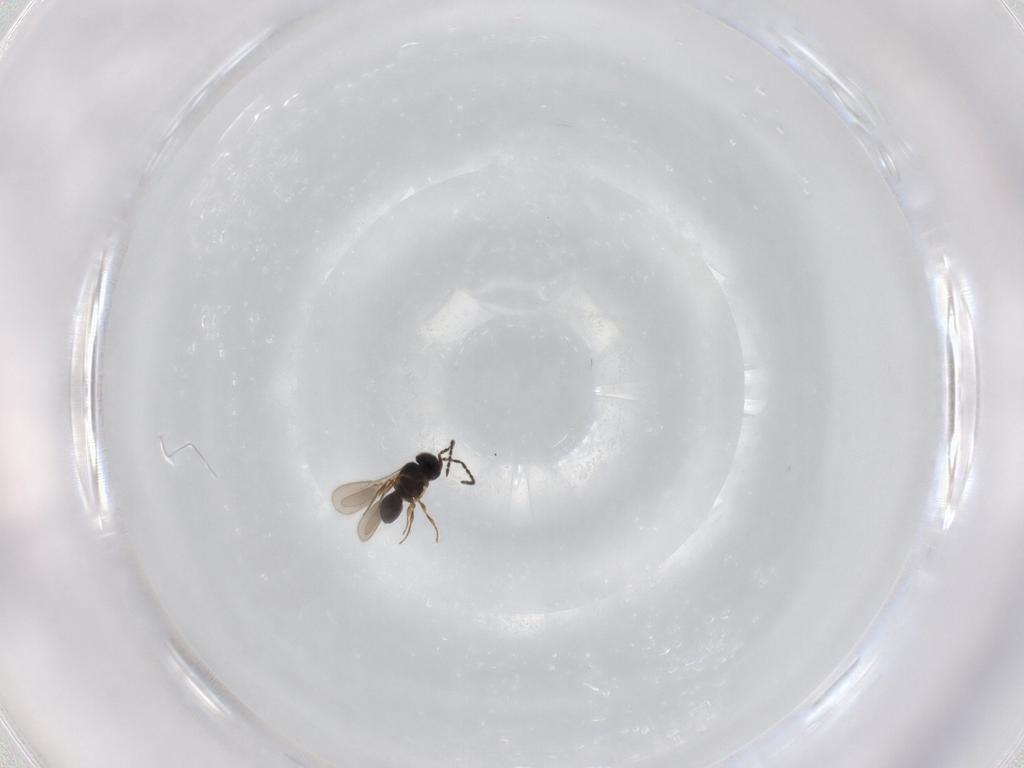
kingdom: Animalia
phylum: Arthropoda
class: Insecta
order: Hymenoptera
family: Scelionidae
